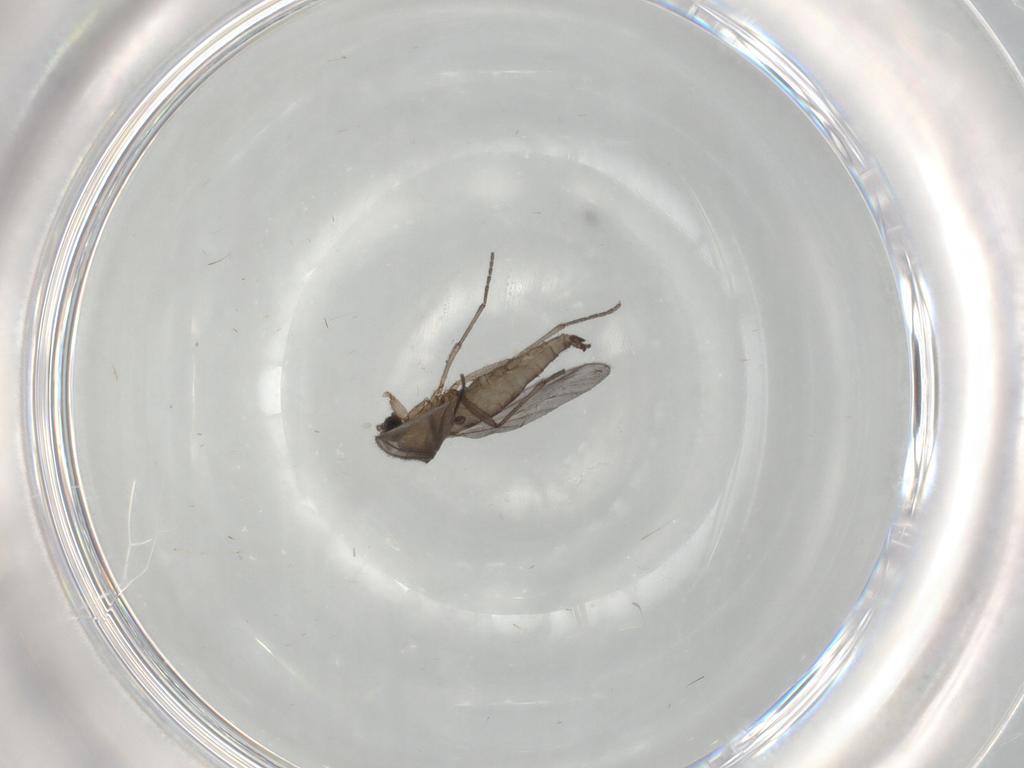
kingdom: Animalia
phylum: Arthropoda
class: Insecta
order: Diptera
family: Sciaridae
